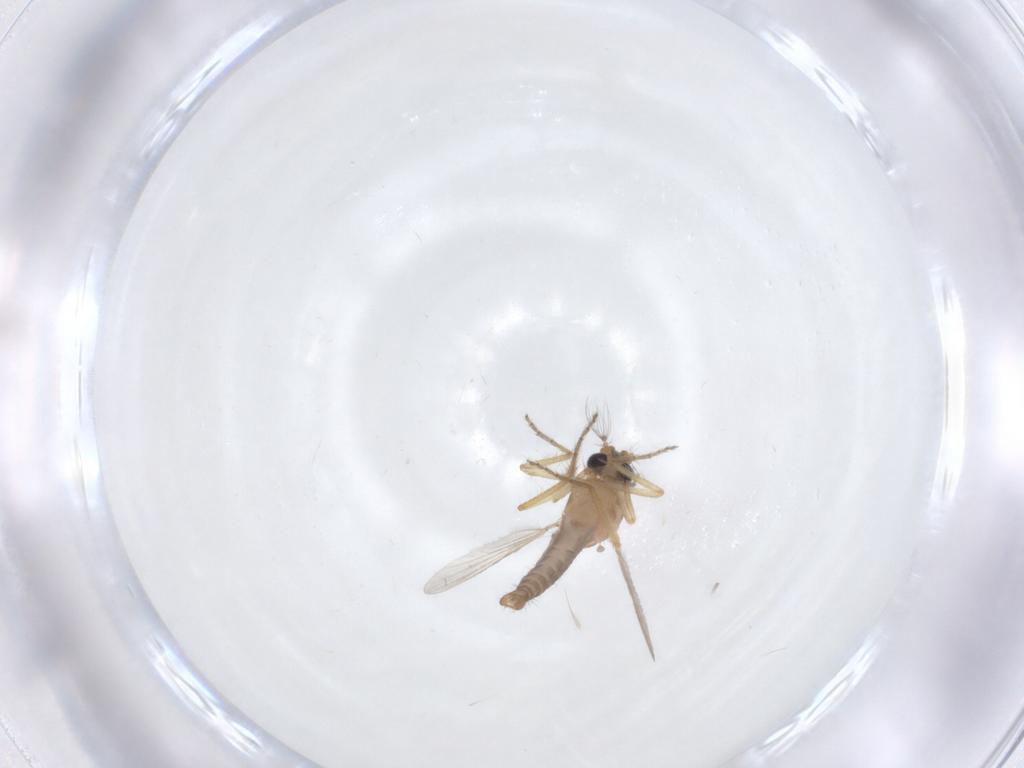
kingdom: Animalia
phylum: Arthropoda
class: Insecta
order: Diptera
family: Ceratopogonidae
